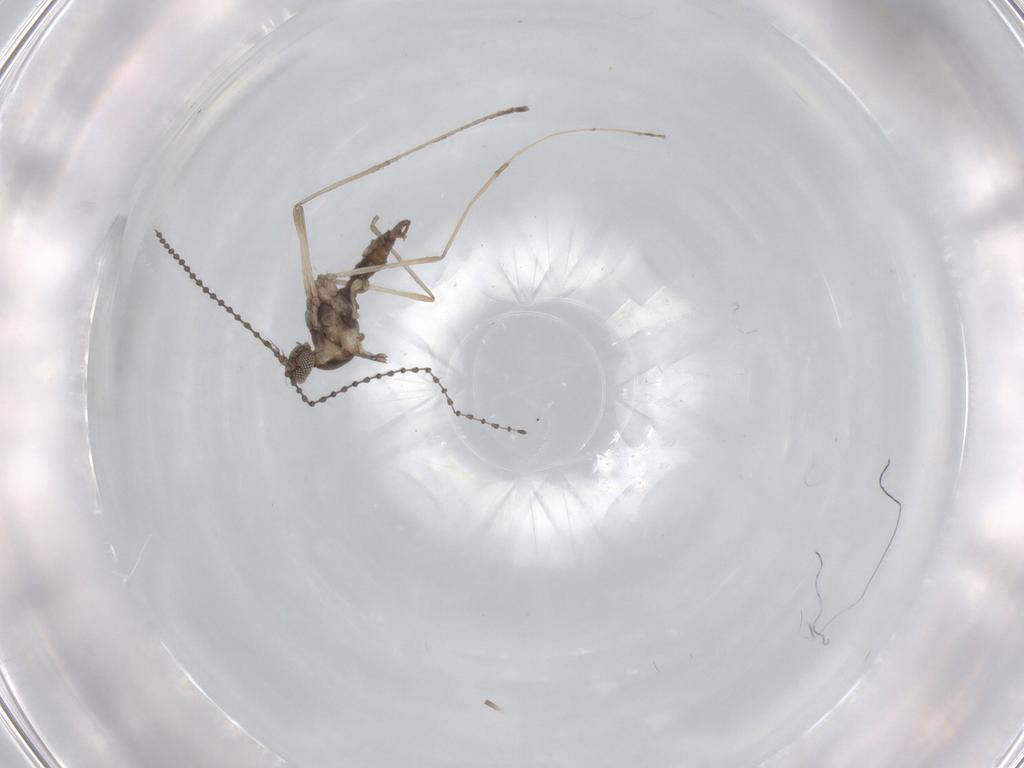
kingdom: Animalia
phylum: Arthropoda
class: Insecta
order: Diptera
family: Cecidomyiidae
